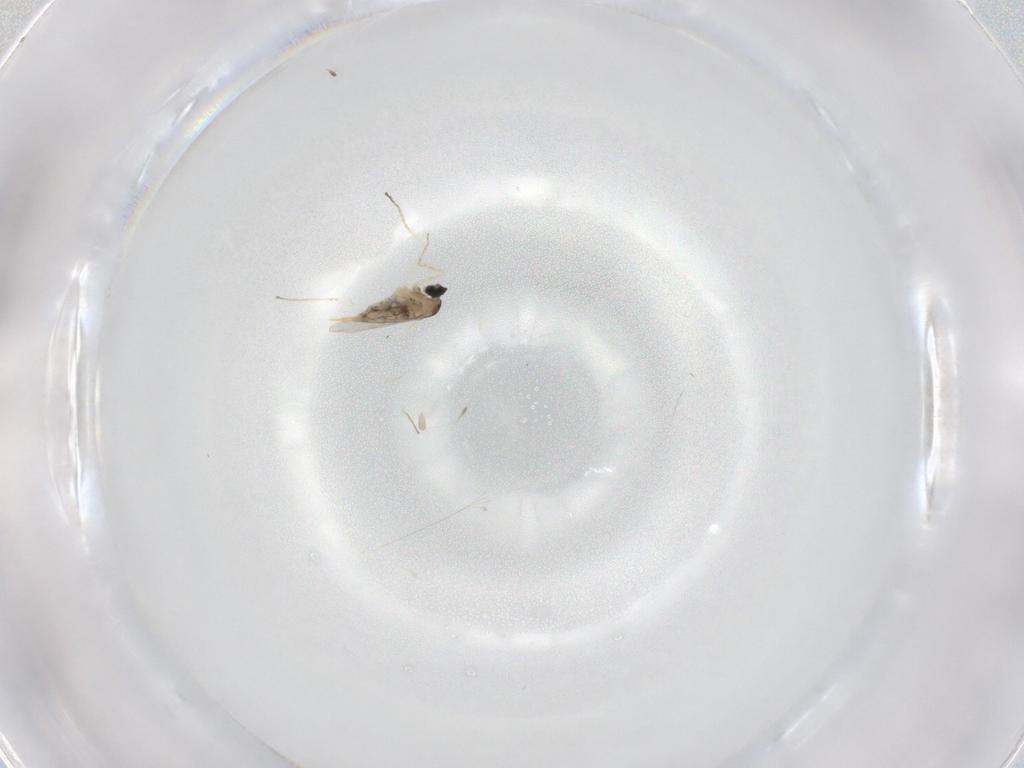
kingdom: Animalia
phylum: Arthropoda
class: Insecta
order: Diptera
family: Cecidomyiidae
